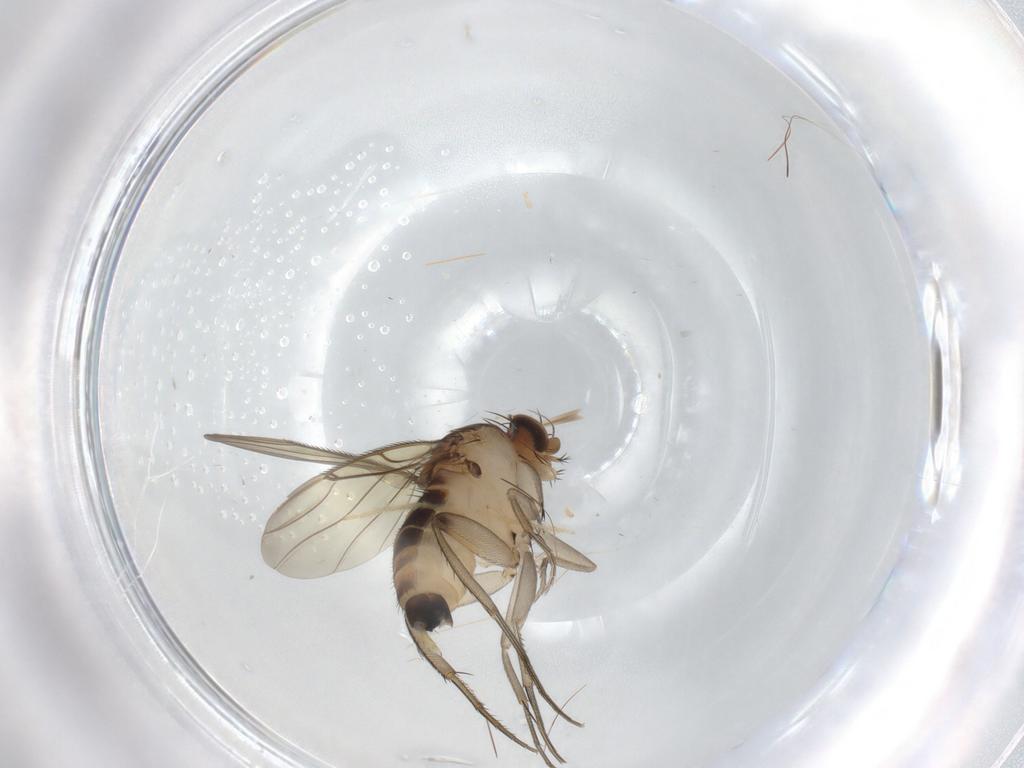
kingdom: Animalia
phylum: Arthropoda
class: Insecta
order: Diptera
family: Phoridae
